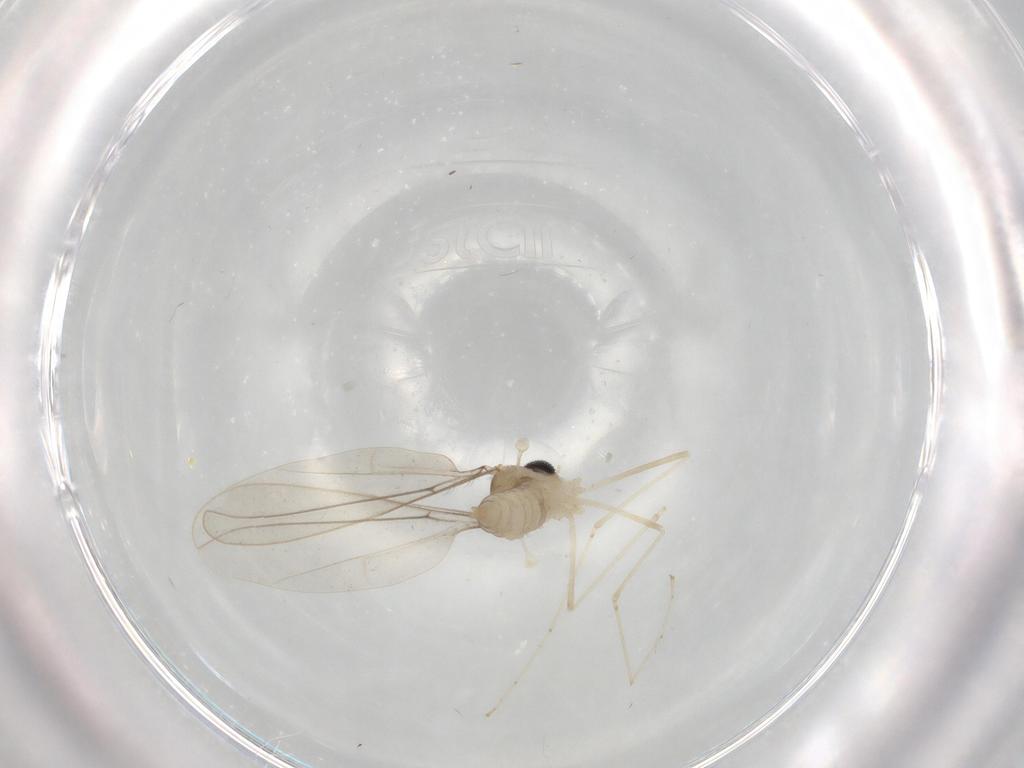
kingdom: Animalia
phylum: Arthropoda
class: Insecta
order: Diptera
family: Cecidomyiidae
